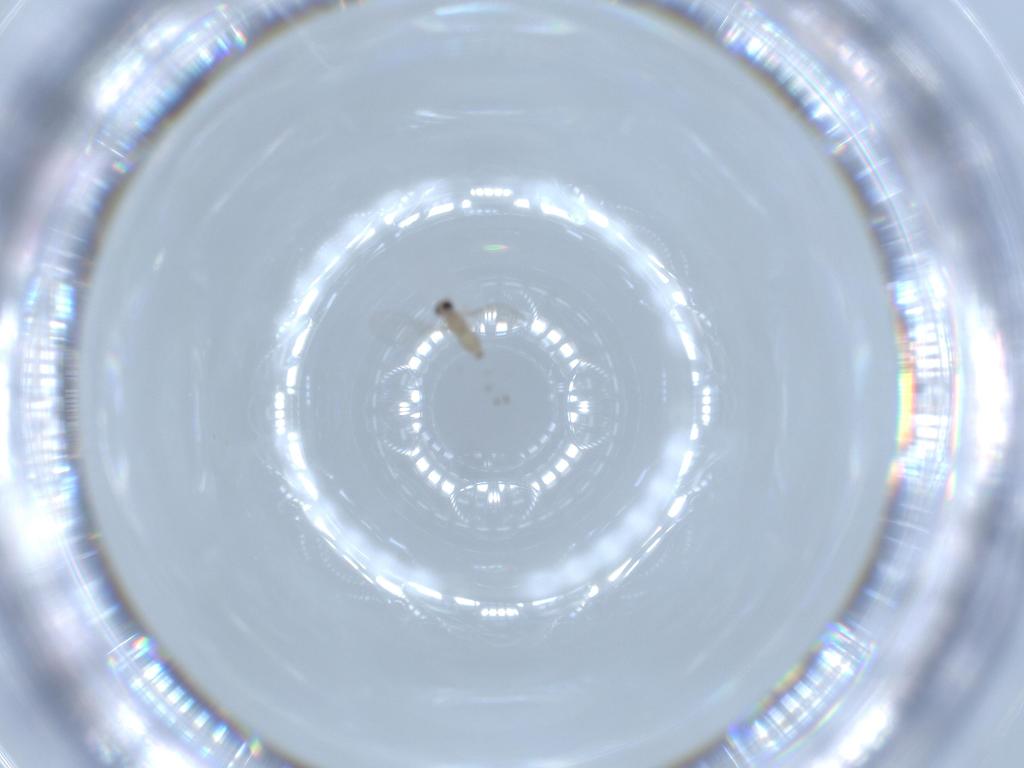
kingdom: Animalia
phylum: Arthropoda
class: Insecta
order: Diptera
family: Cecidomyiidae
